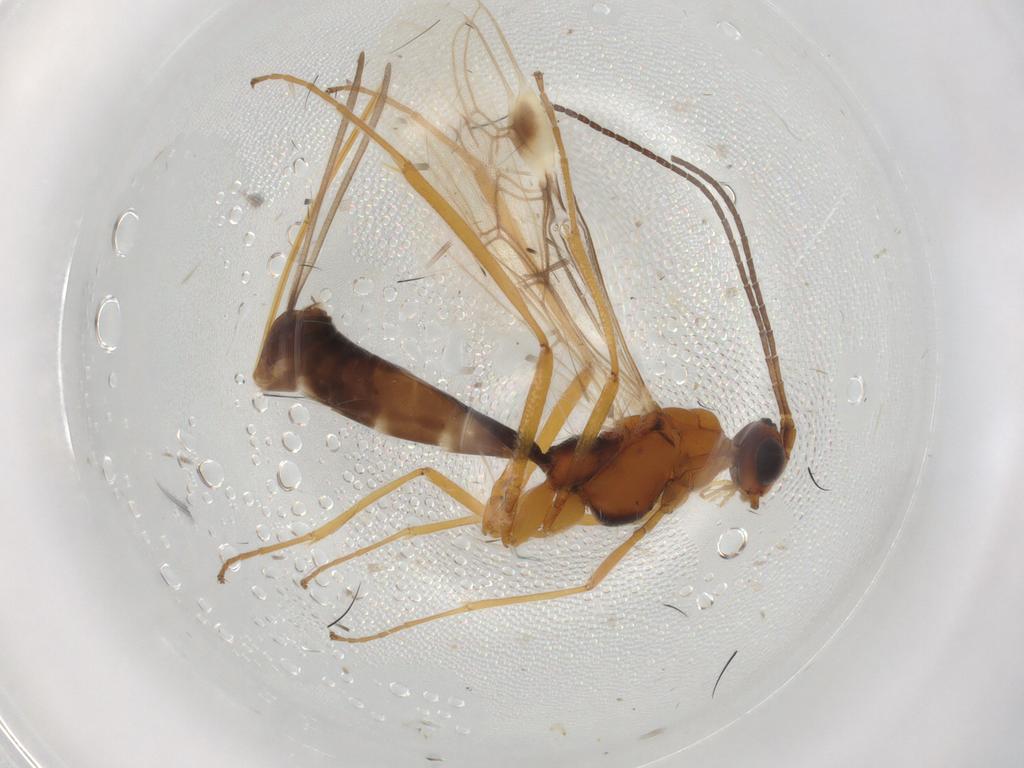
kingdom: Animalia
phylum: Arthropoda
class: Insecta
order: Hymenoptera
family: Braconidae
